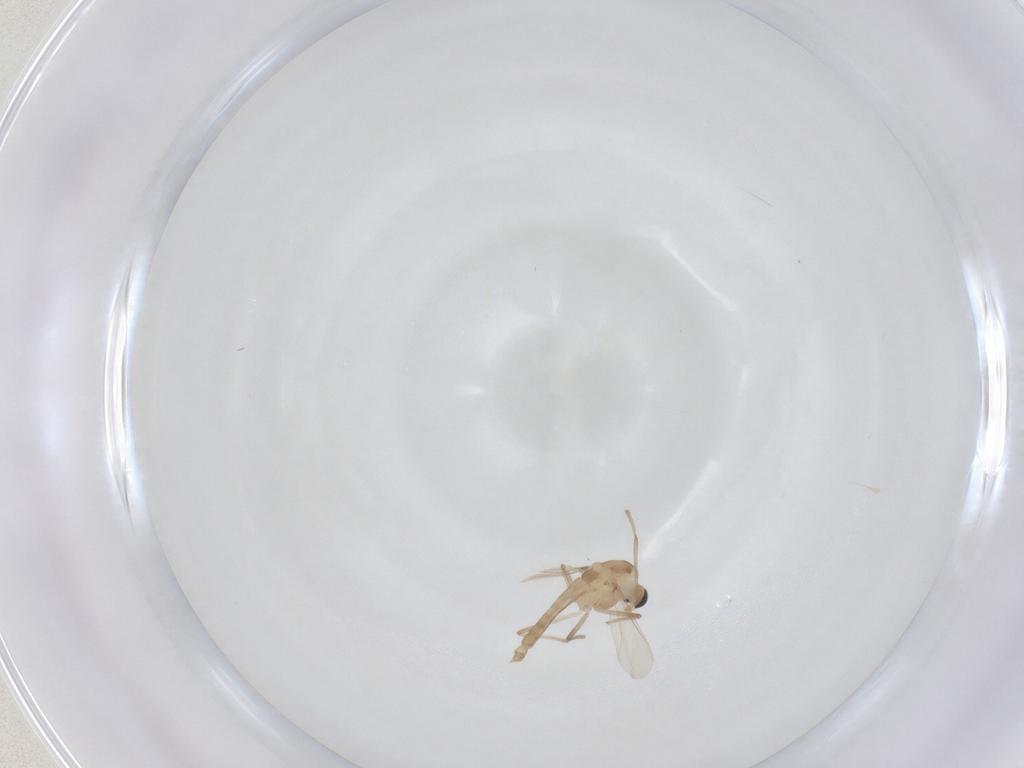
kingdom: Animalia
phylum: Arthropoda
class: Insecta
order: Diptera
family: Chironomidae
